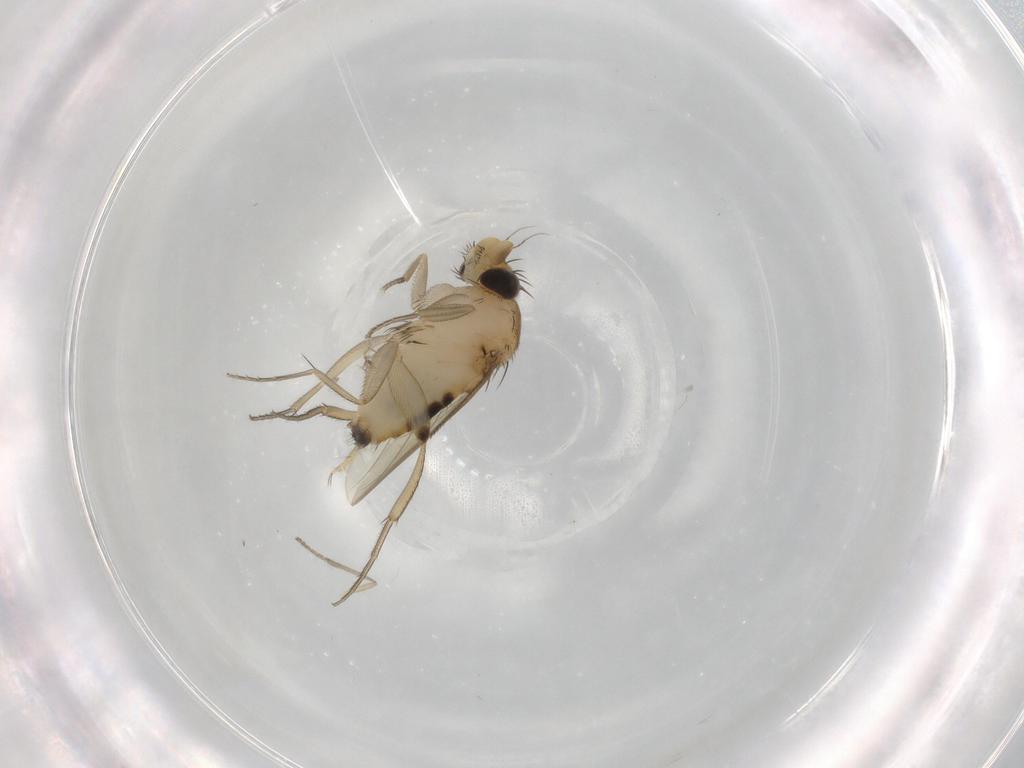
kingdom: Animalia
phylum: Arthropoda
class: Insecta
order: Diptera
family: Phoridae
